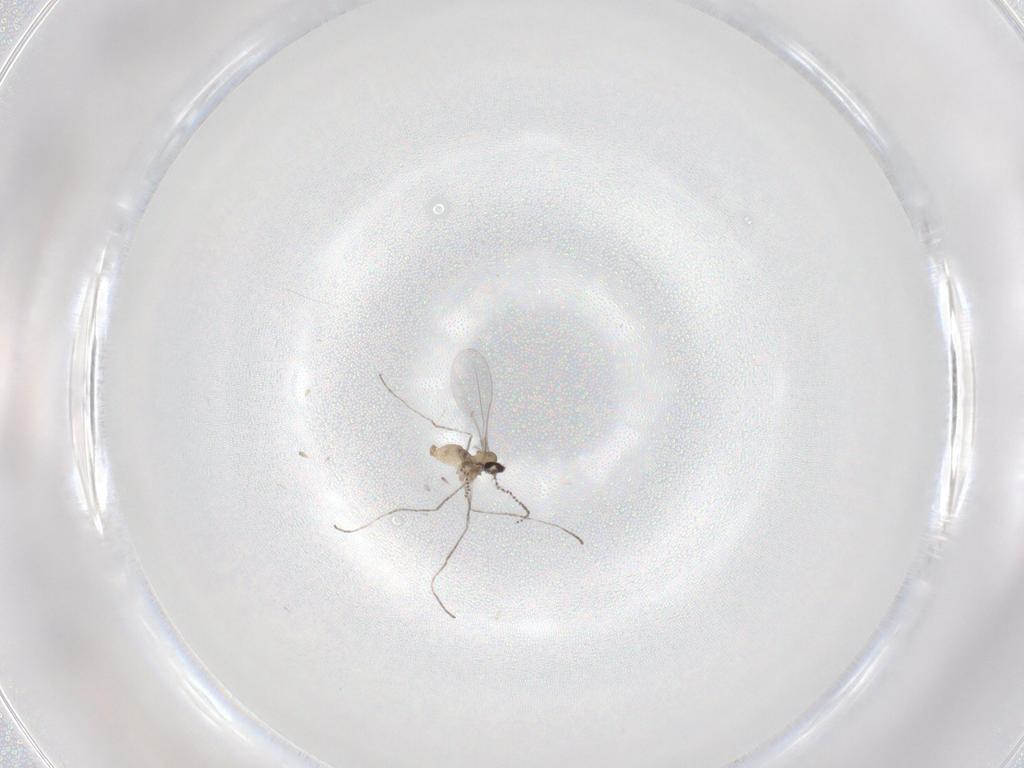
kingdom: Animalia
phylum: Arthropoda
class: Insecta
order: Diptera
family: Cecidomyiidae
